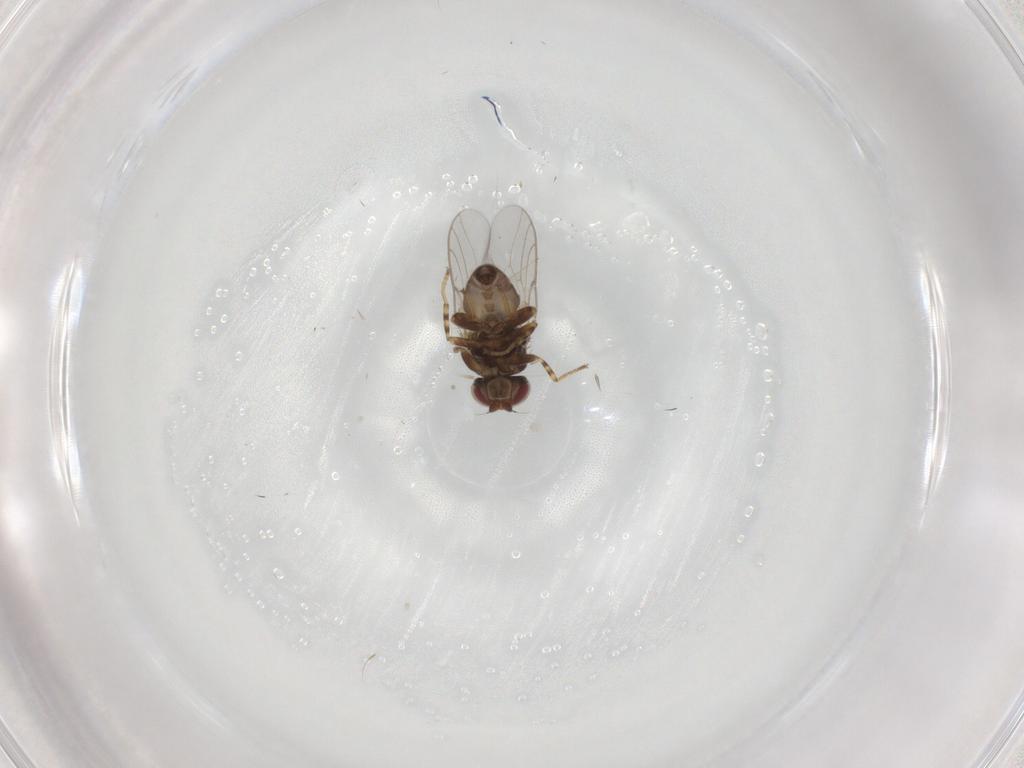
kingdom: Animalia
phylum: Arthropoda
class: Insecta
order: Diptera
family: Chloropidae
